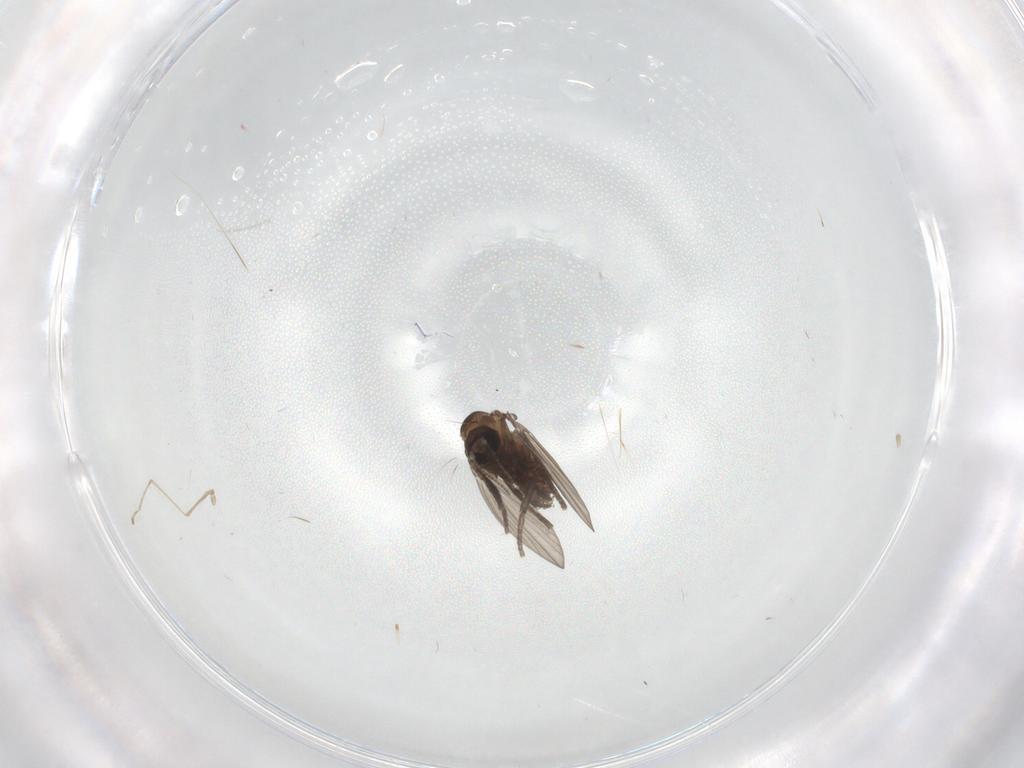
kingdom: Animalia
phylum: Arthropoda
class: Insecta
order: Diptera
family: Psychodidae
